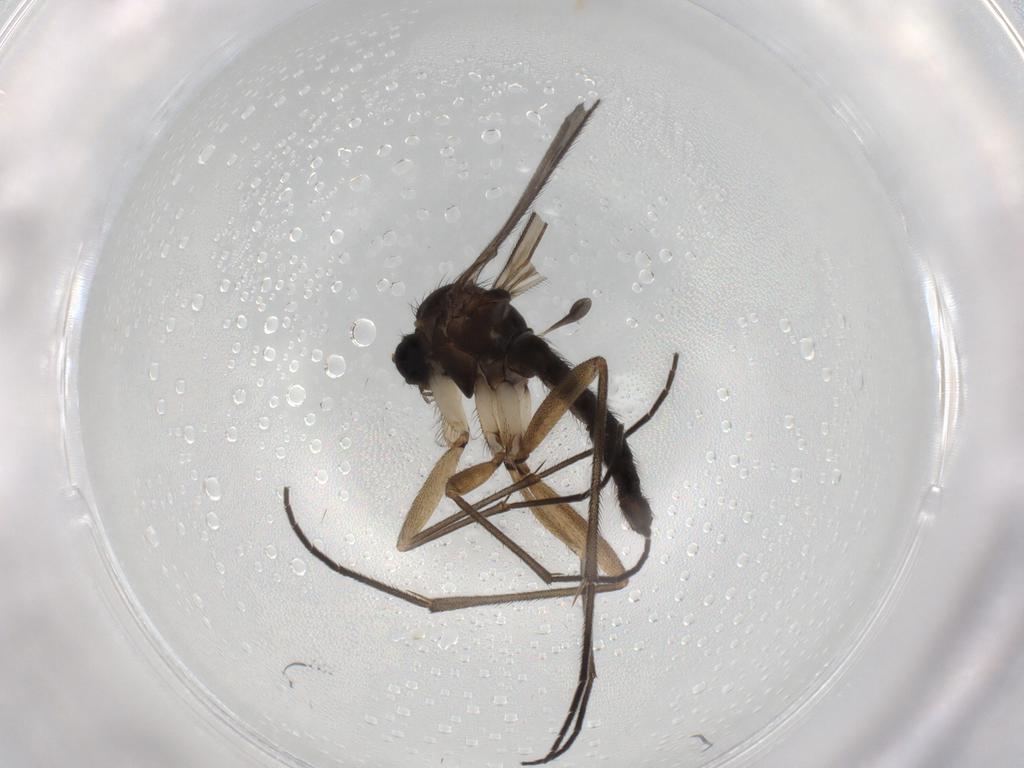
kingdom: Animalia
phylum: Arthropoda
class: Insecta
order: Diptera
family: Sciaridae
